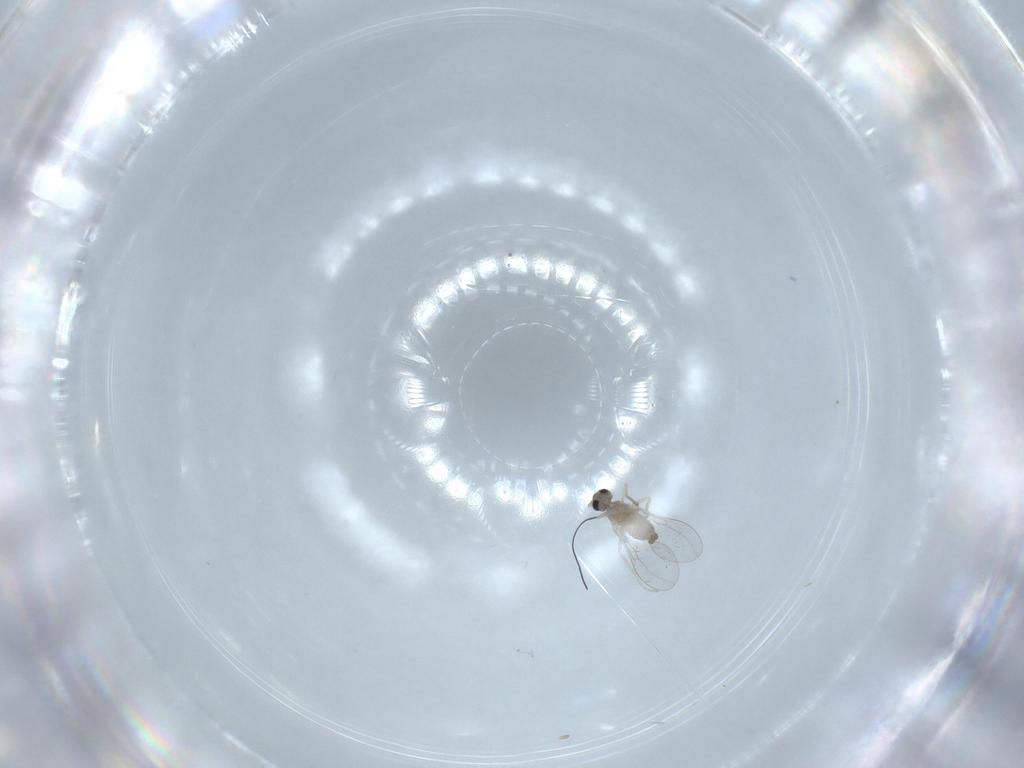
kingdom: Animalia
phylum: Arthropoda
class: Insecta
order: Diptera
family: Cecidomyiidae
